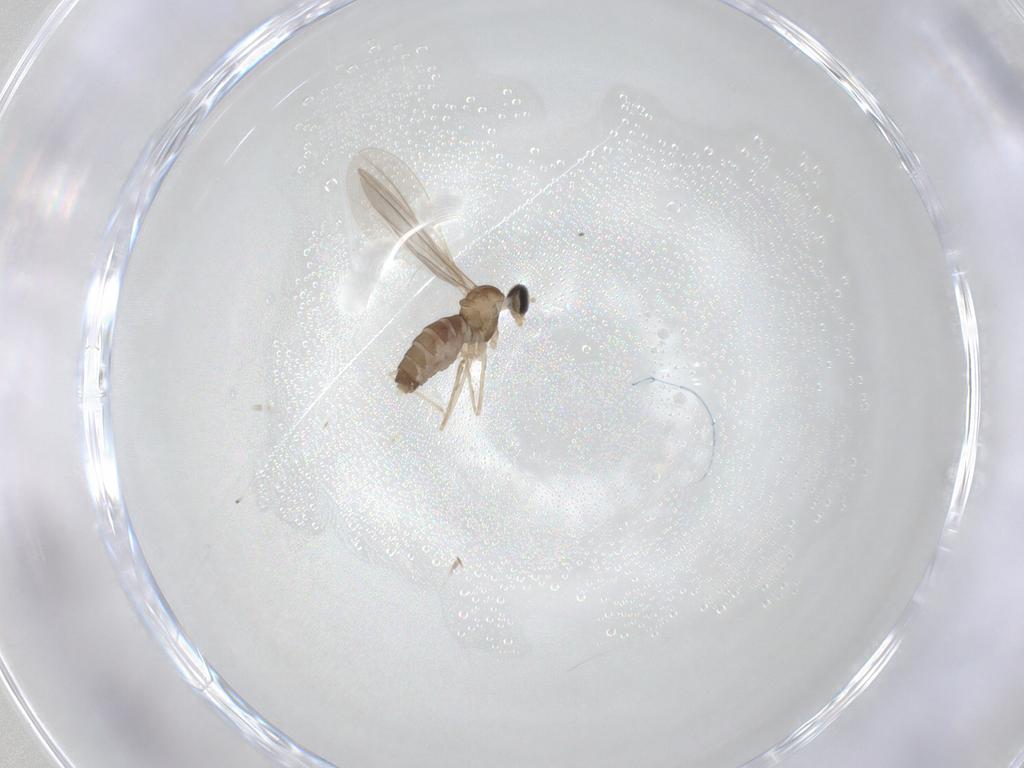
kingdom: Animalia
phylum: Arthropoda
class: Insecta
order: Diptera
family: Cecidomyiidae
